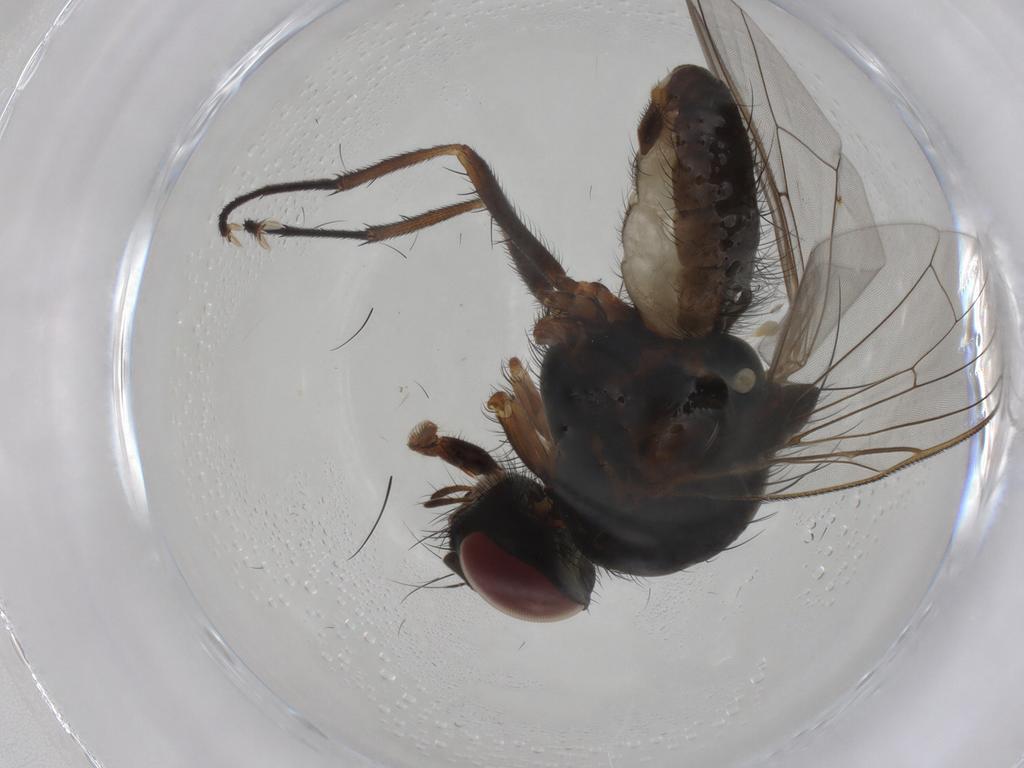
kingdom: Animalia
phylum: Arthropoda
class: Insecta
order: Diptera
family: Anthomyiidae
